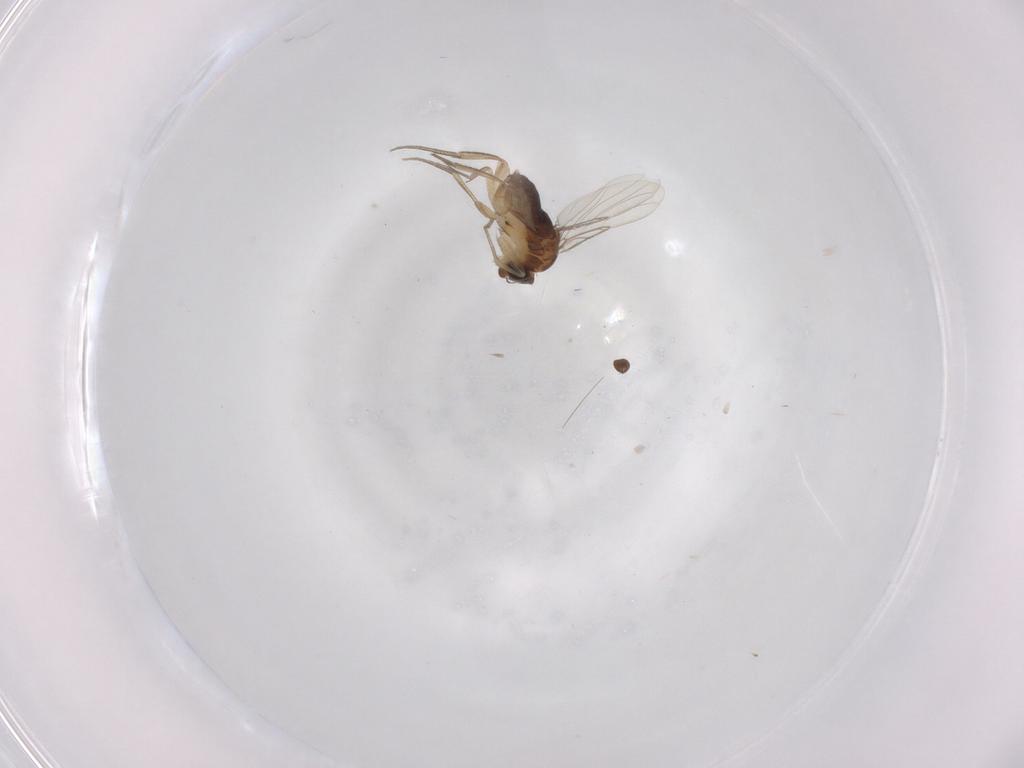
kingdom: Animalia
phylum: Arthropoda
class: Insecta
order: Diptera
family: Phoridae
